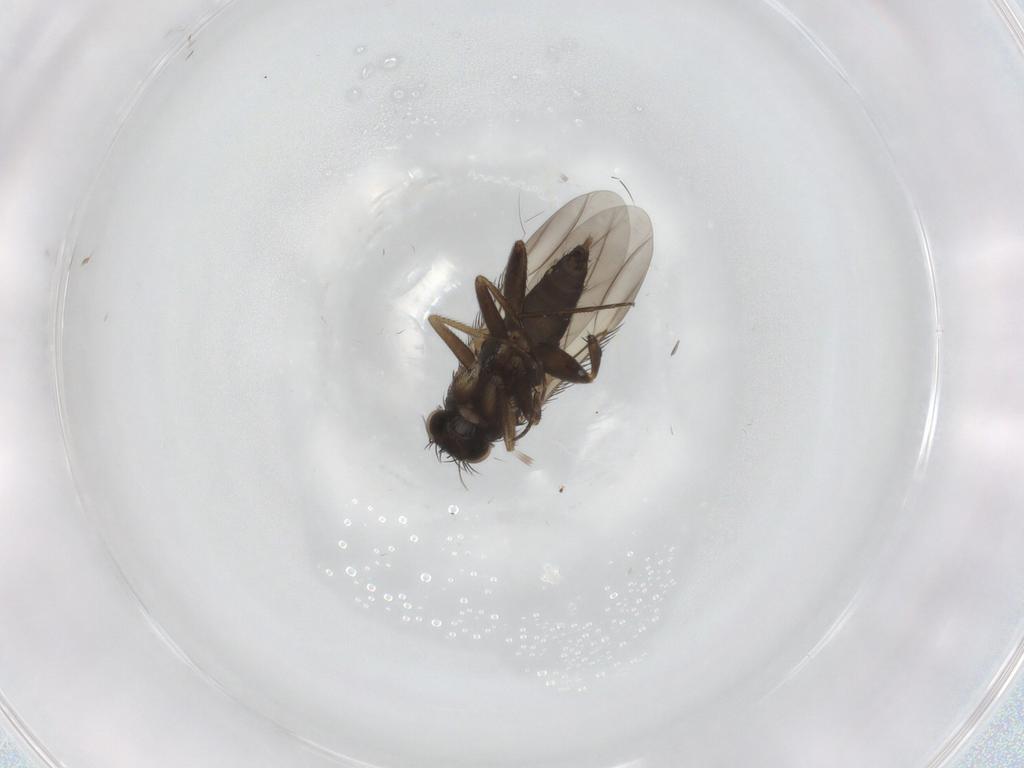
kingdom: Animalia
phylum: Arthropoda
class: Insecta
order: Diptera
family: Phoridae
